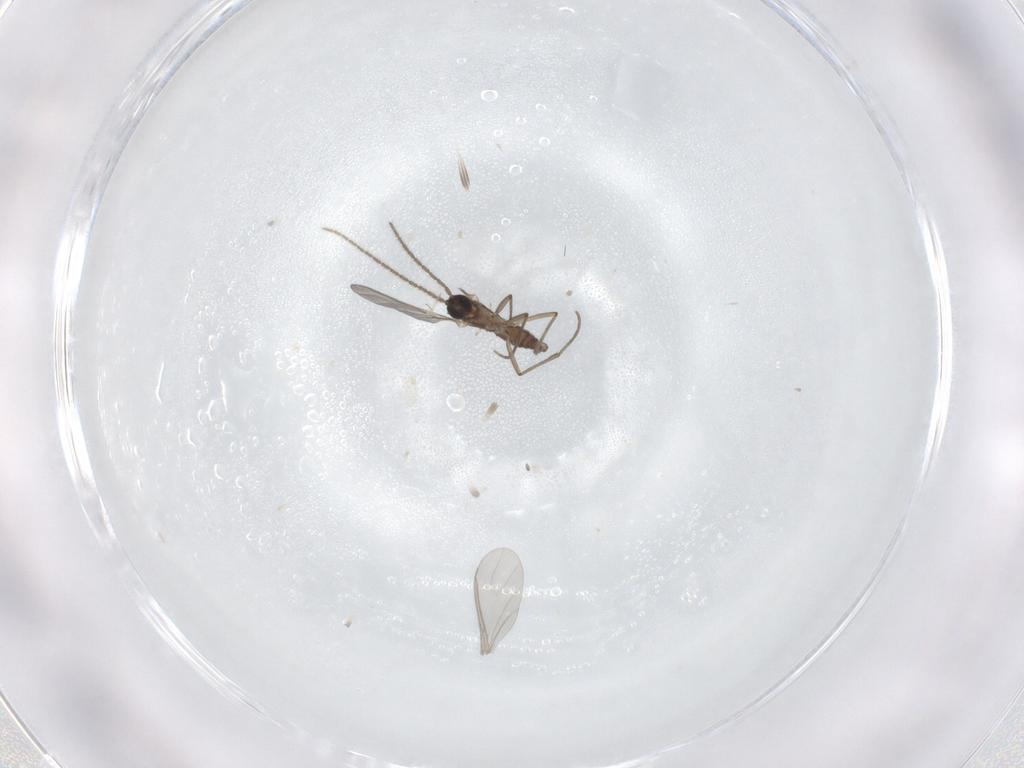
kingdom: Animalia
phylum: Arthropoda
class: Insecta
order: Diptera
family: Sciaridae
